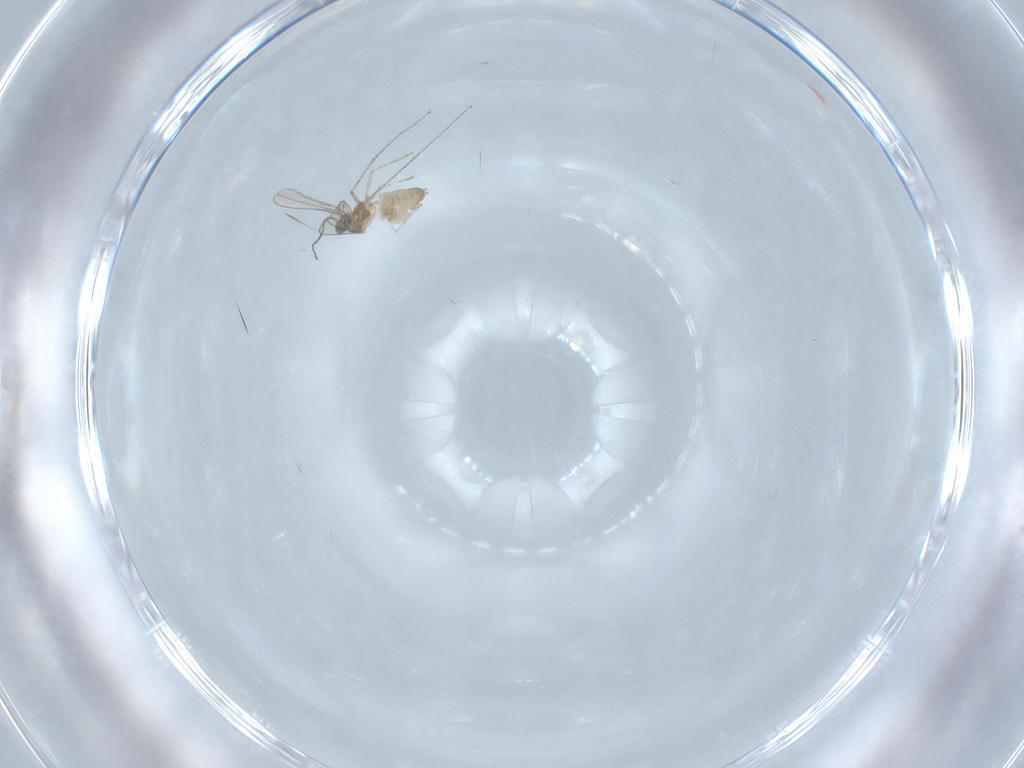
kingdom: Animalia
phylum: Arthropoda
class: Insecta
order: Diptera
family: Cecidomyiidae
